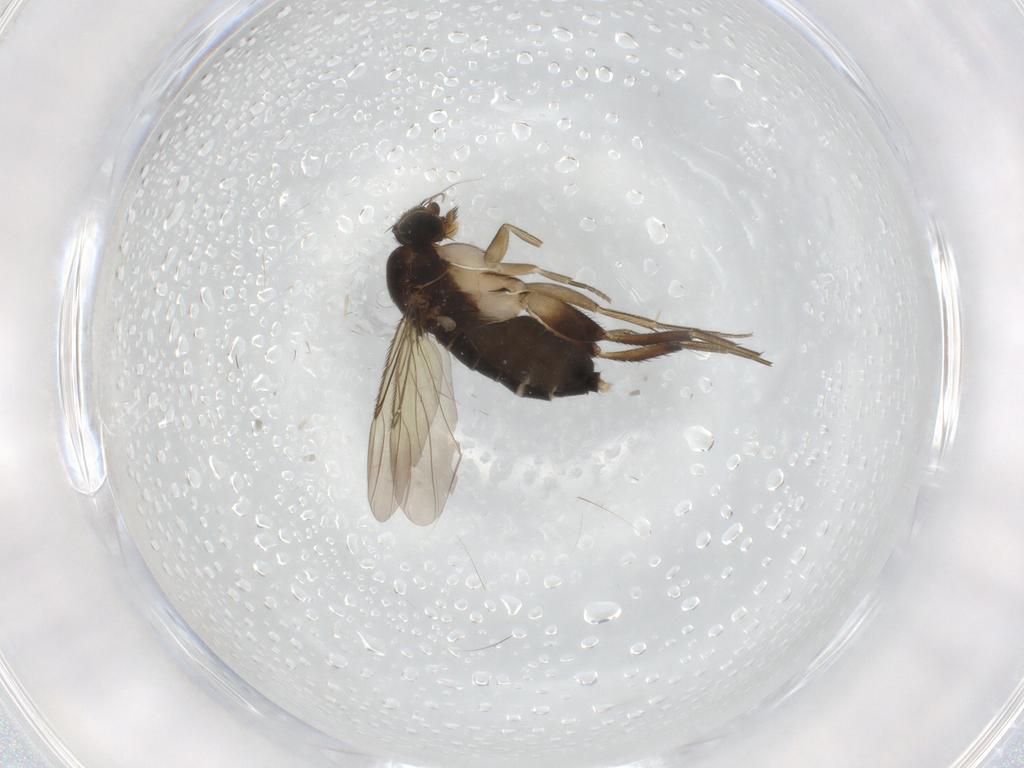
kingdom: Animalia
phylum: Arthropoda
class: Insecta
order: Diptera
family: Phoridae
